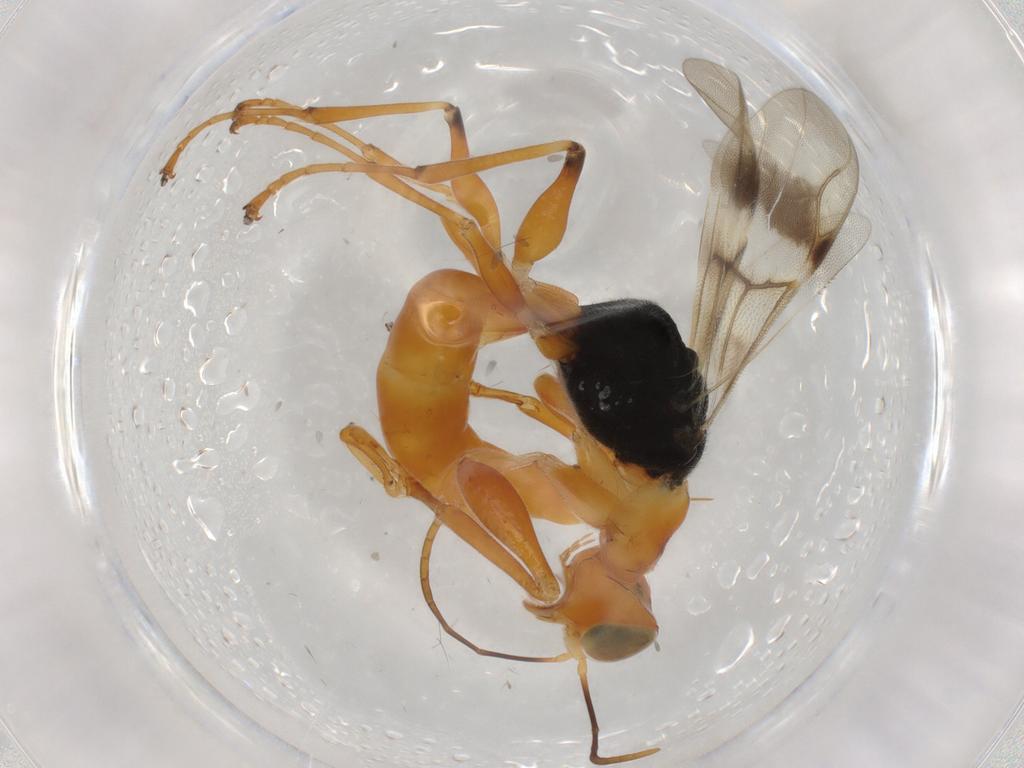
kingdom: Animalia
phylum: Arthropoda
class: Insecta
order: Hymenoptera
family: Dryinidae
